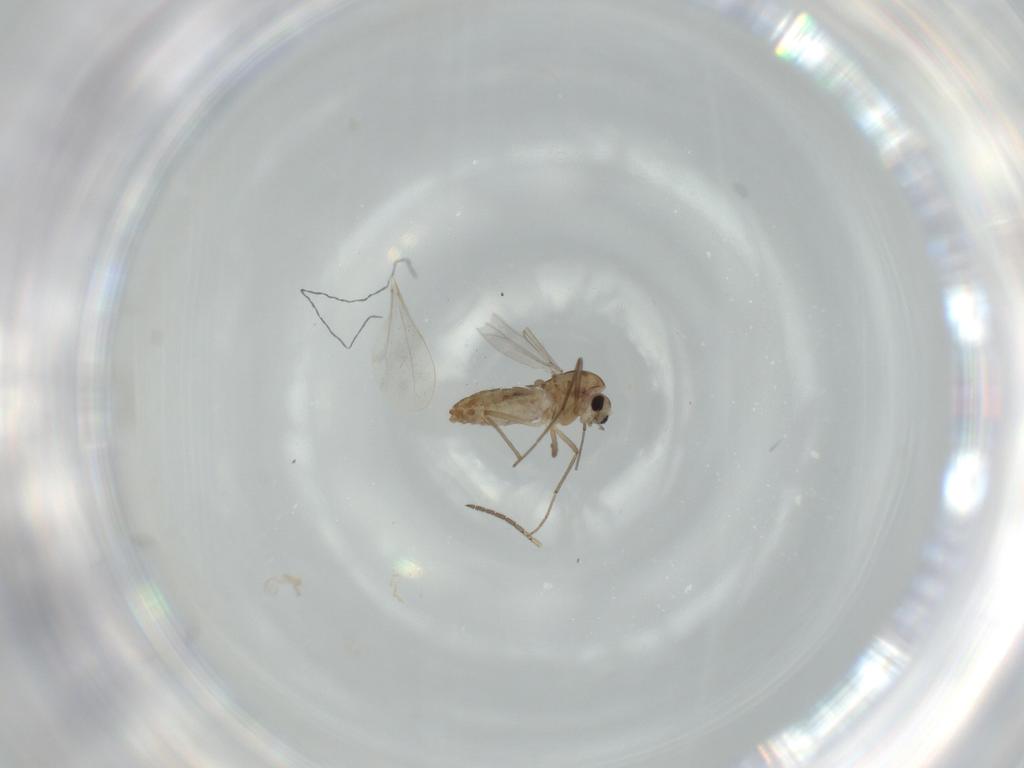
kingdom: Animalia
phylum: Arthropoda
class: Insecta
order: Diptera
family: Chironomidae
